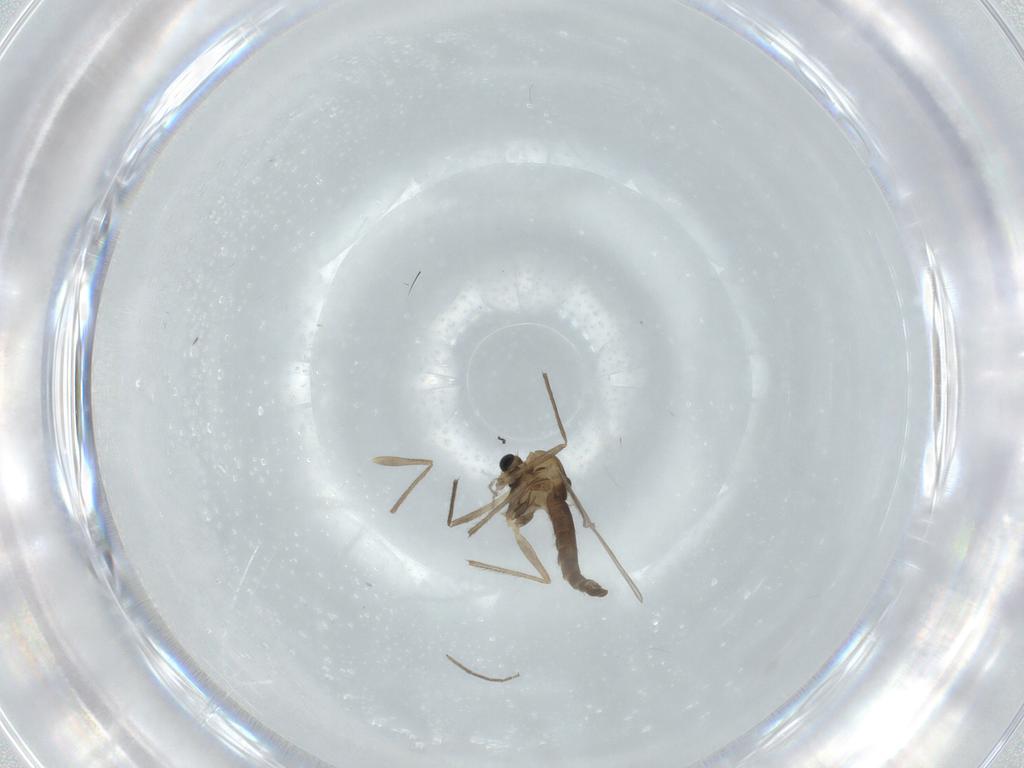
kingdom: Animalia
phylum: Arthropoda
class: Insecta
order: Diptera
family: Chironomidae
